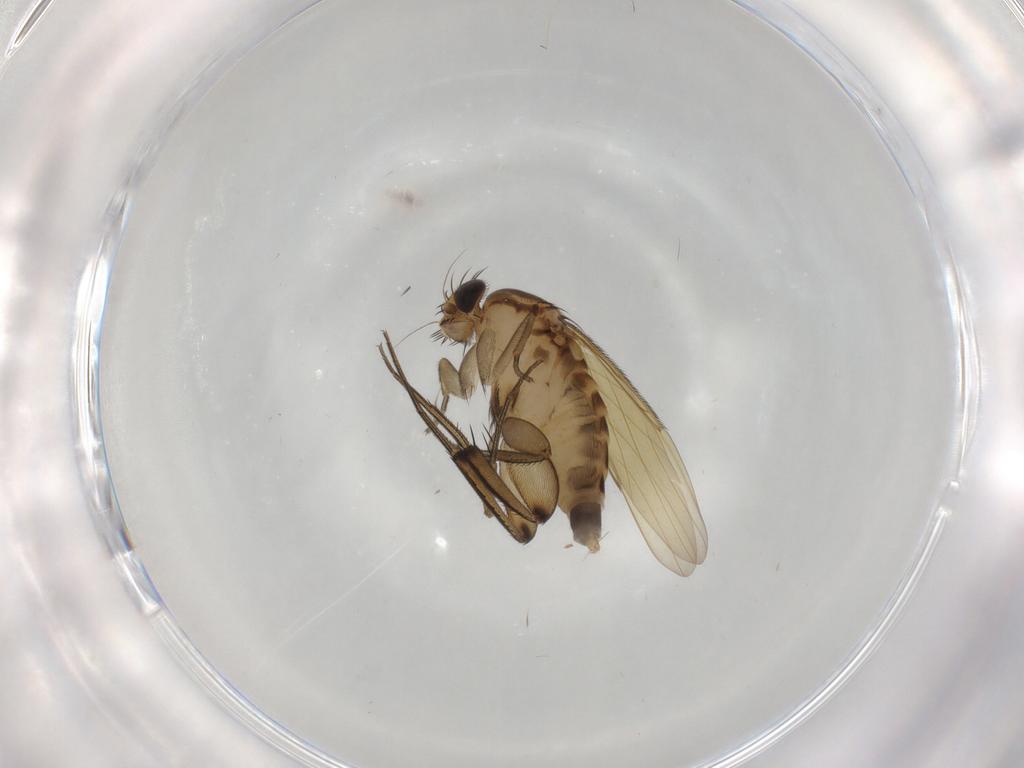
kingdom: Animalia
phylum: Arthropoda
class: Insecta
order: Diptera
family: Phoridae
